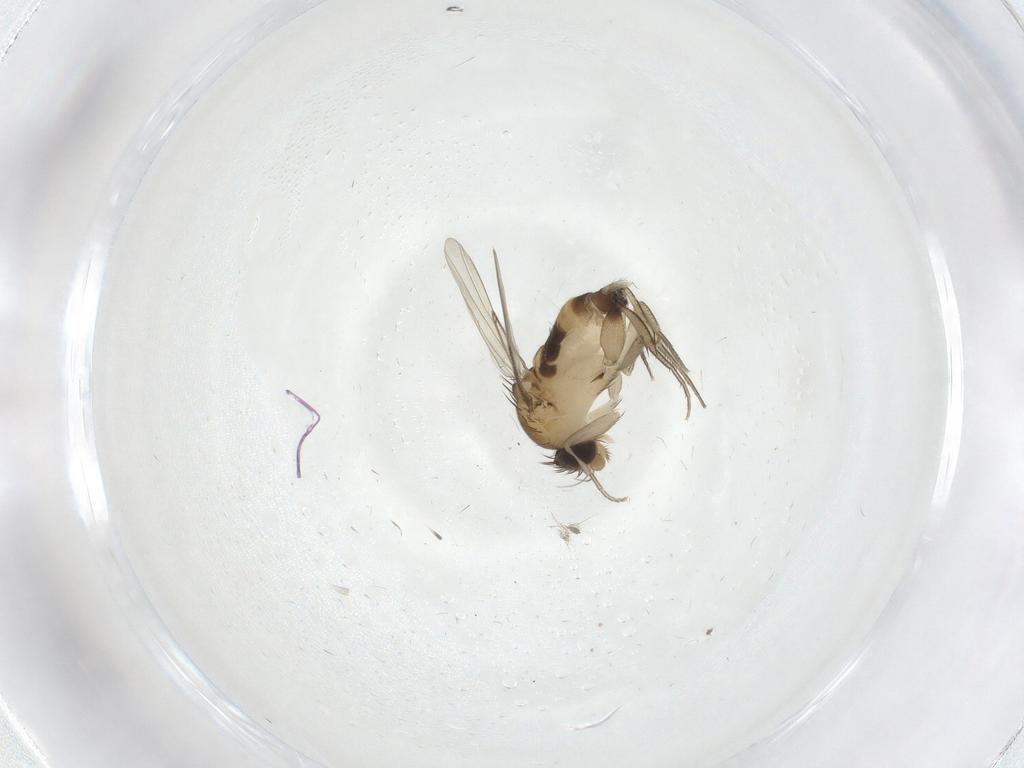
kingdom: Animalia
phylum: Arthropoda
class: Insecta
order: Diptera
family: Phoridae
